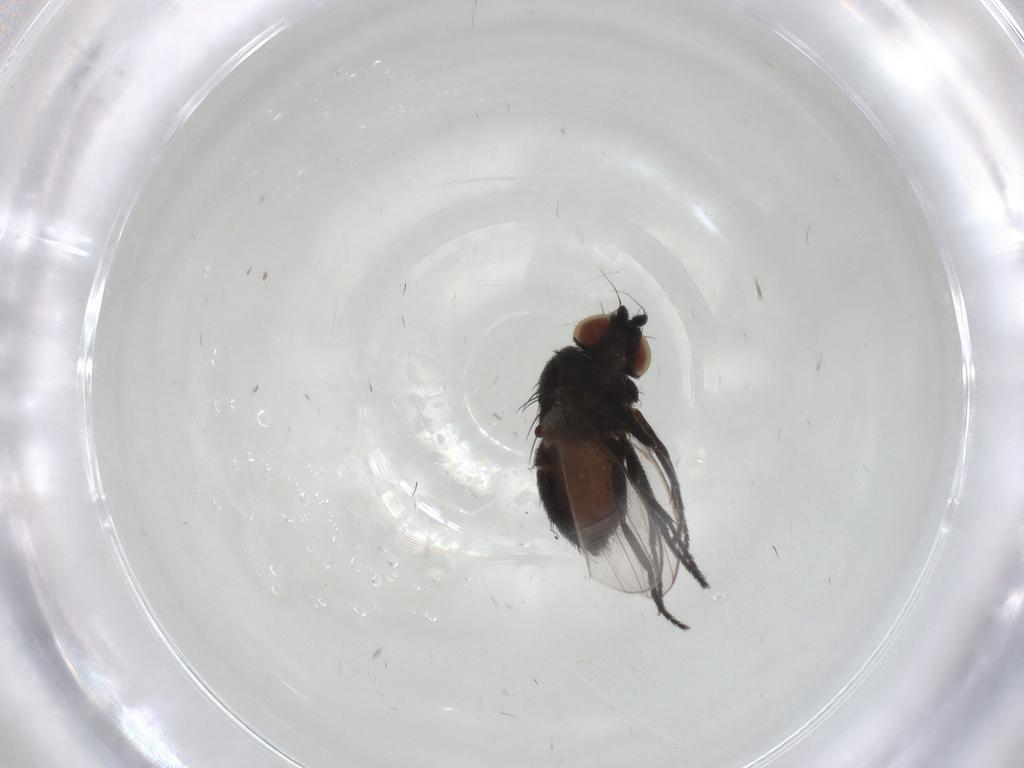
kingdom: Animalia
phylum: Arthropoda
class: Insecta
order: Diptera
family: Milichiidae
